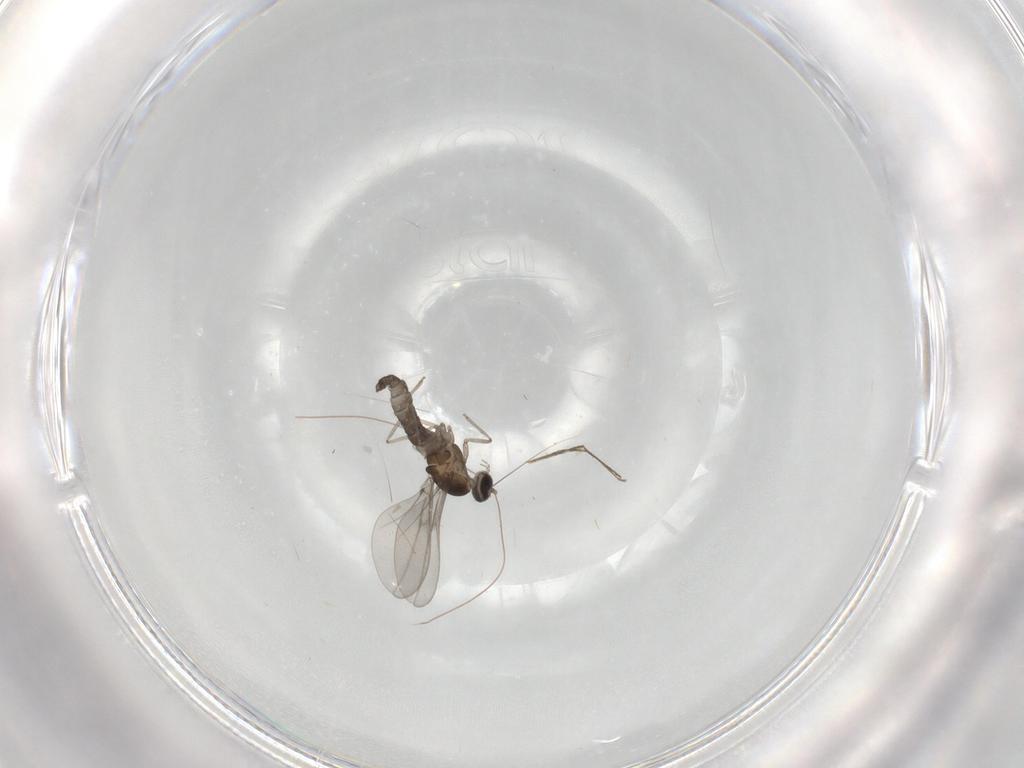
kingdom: Animalia
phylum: Arthropoda
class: Insecta
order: Diptera
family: Cecidomyiidae
